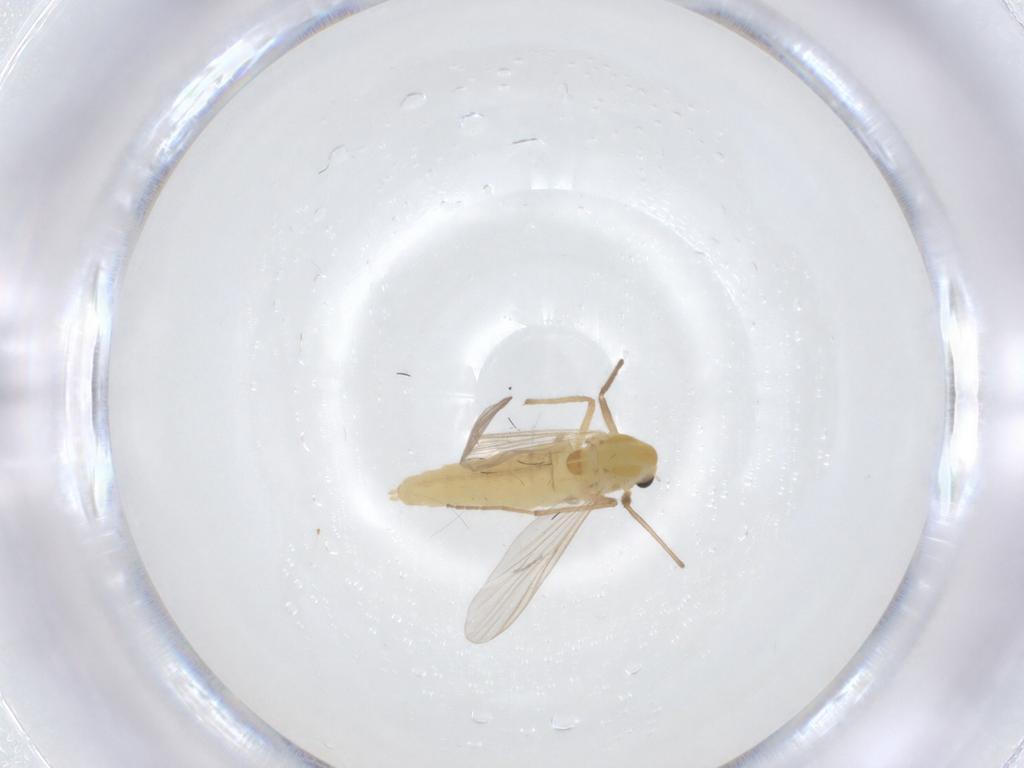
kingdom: Animalia
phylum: Arthropoda
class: Insecta
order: Diptera
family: Chironomidae
